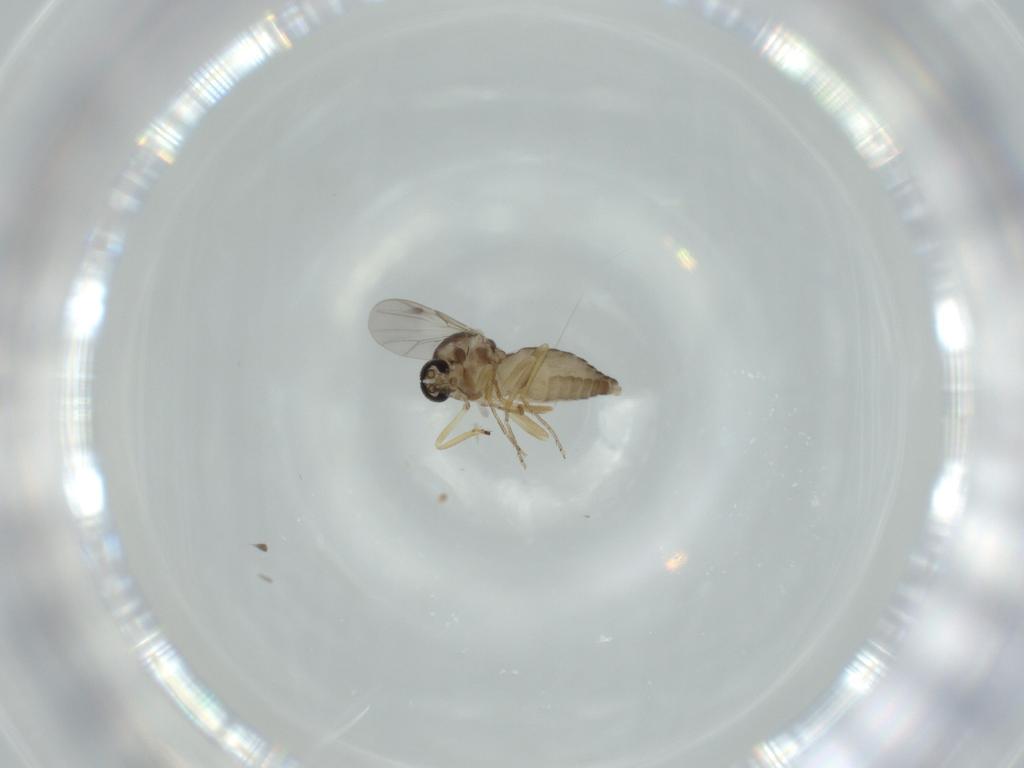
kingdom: Animalia
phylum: Arthropoda
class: Insecta
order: Diptera
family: Ceratopogonidae
